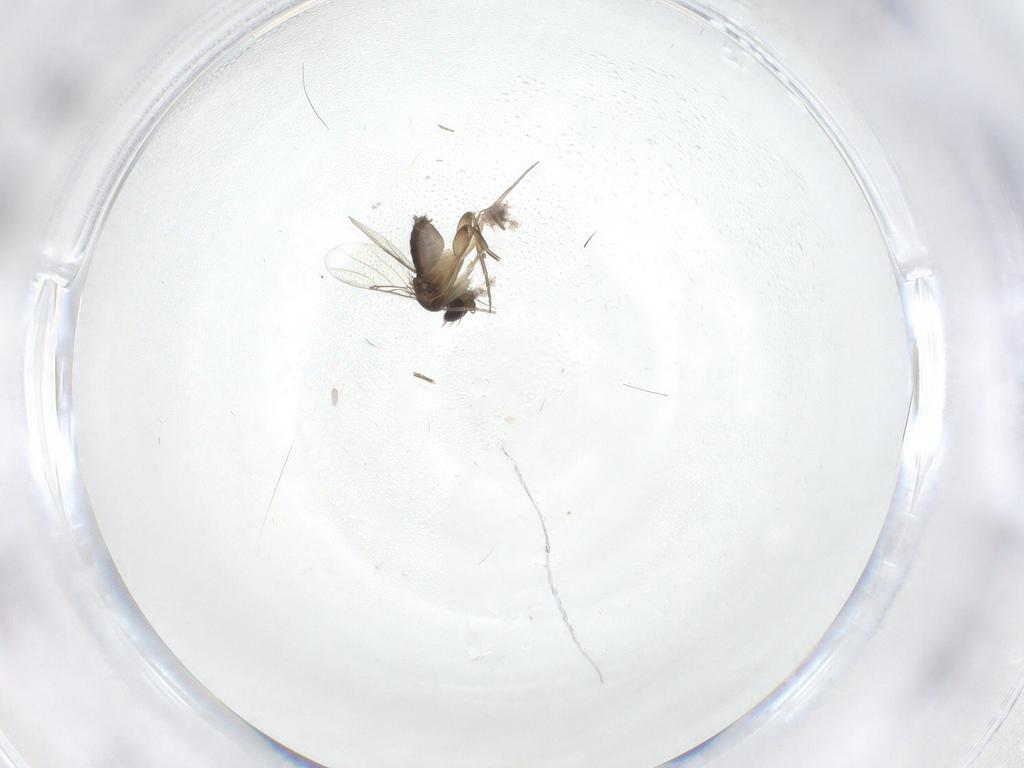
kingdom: Animalia
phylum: Arthropoda
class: Insecta
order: Diptera
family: Phoridae
